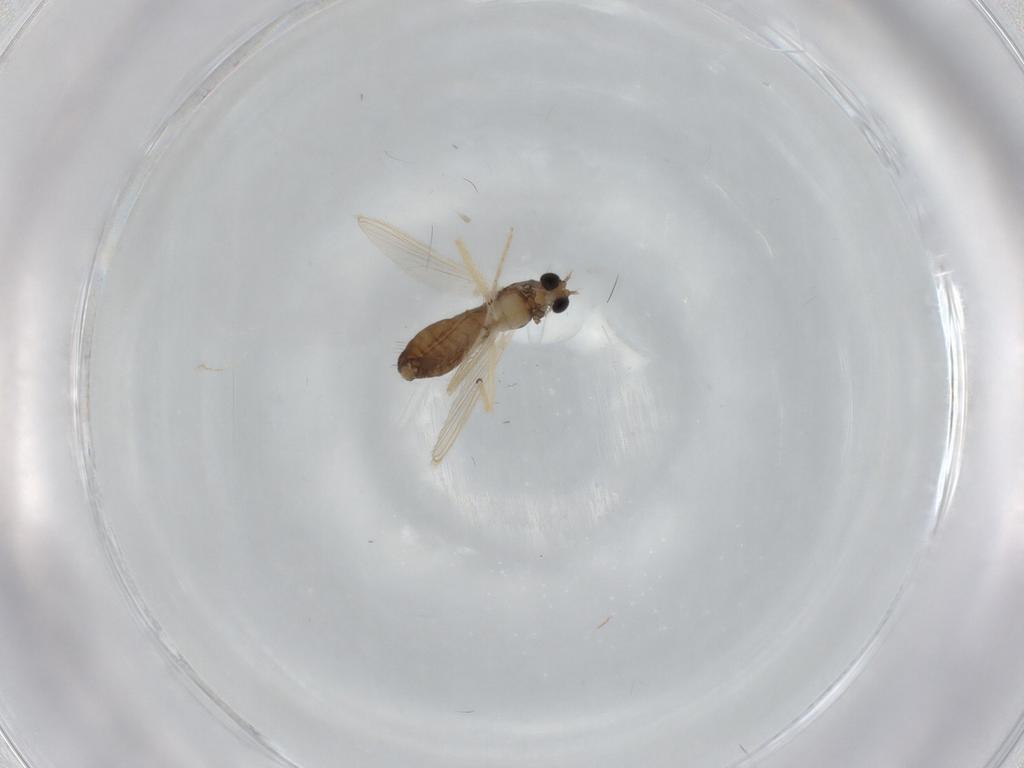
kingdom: Animalia
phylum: Arthropoda
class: Insecta
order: Diptera
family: Chironomidae
